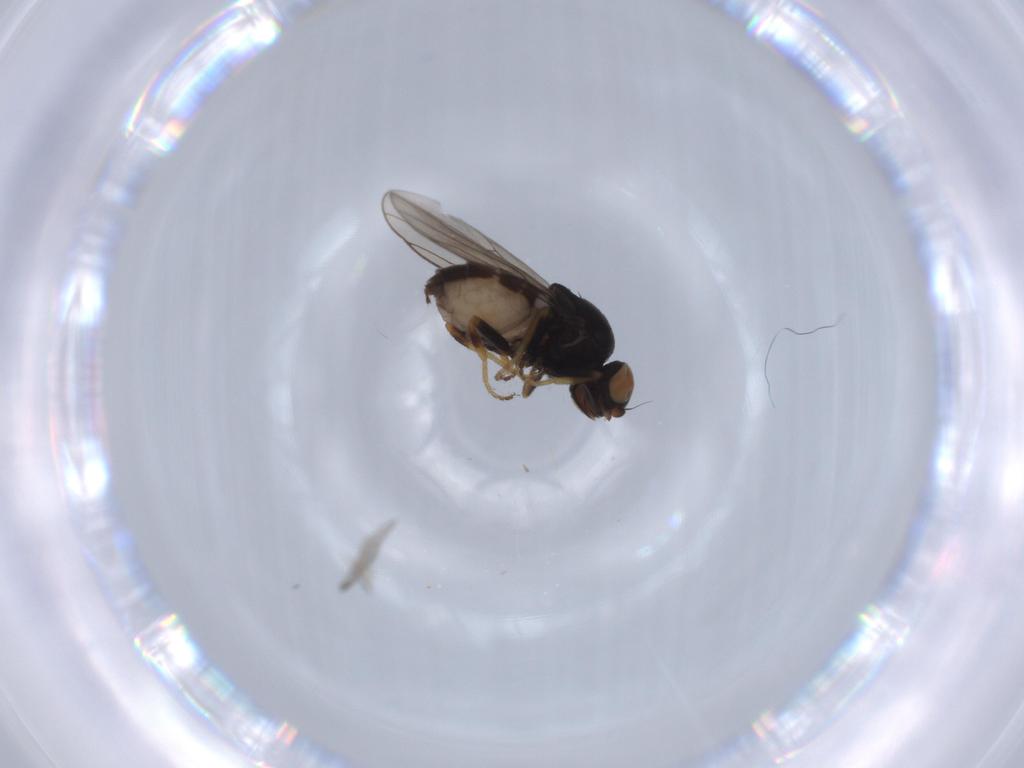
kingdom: Animalia
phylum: Arthropoda
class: Insecta
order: Diptera
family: Chloropidae
